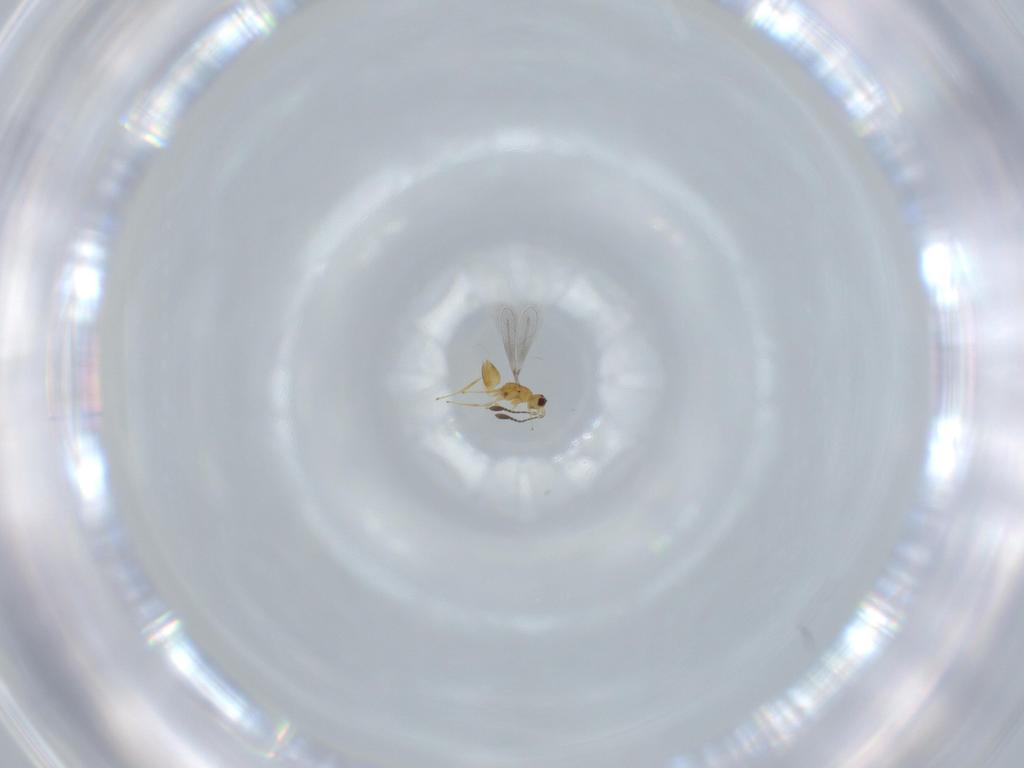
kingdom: Animalia
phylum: Arthropoda
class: Insecta
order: Hymenoptera
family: Mymaridae
